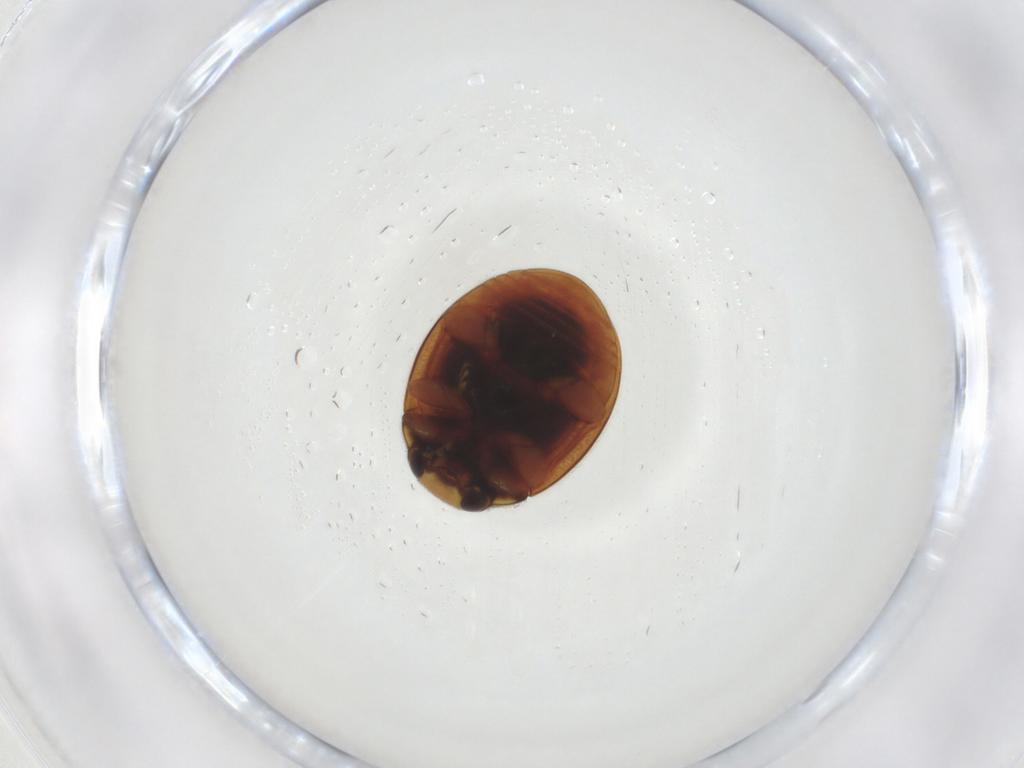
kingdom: Animalia
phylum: Arthropoda
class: Insecta
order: Coleoptera
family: Coccinellidae
